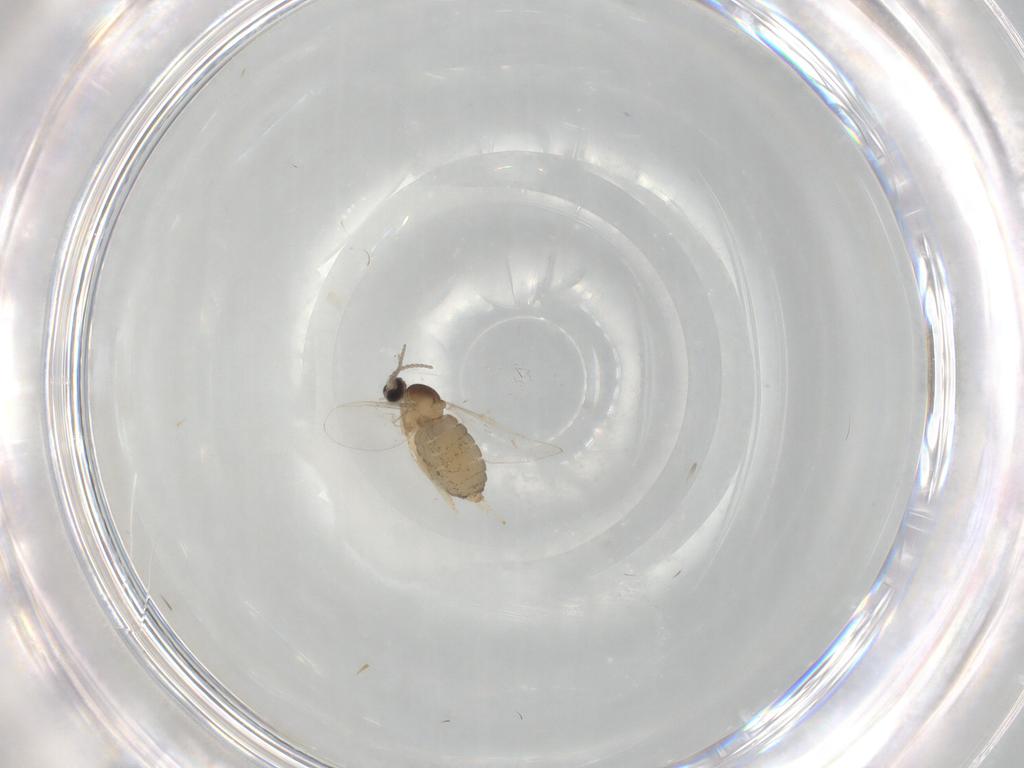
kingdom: Animalia
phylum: Arthropoda
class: Insecta
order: Diptera
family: Cecidomyiidae
